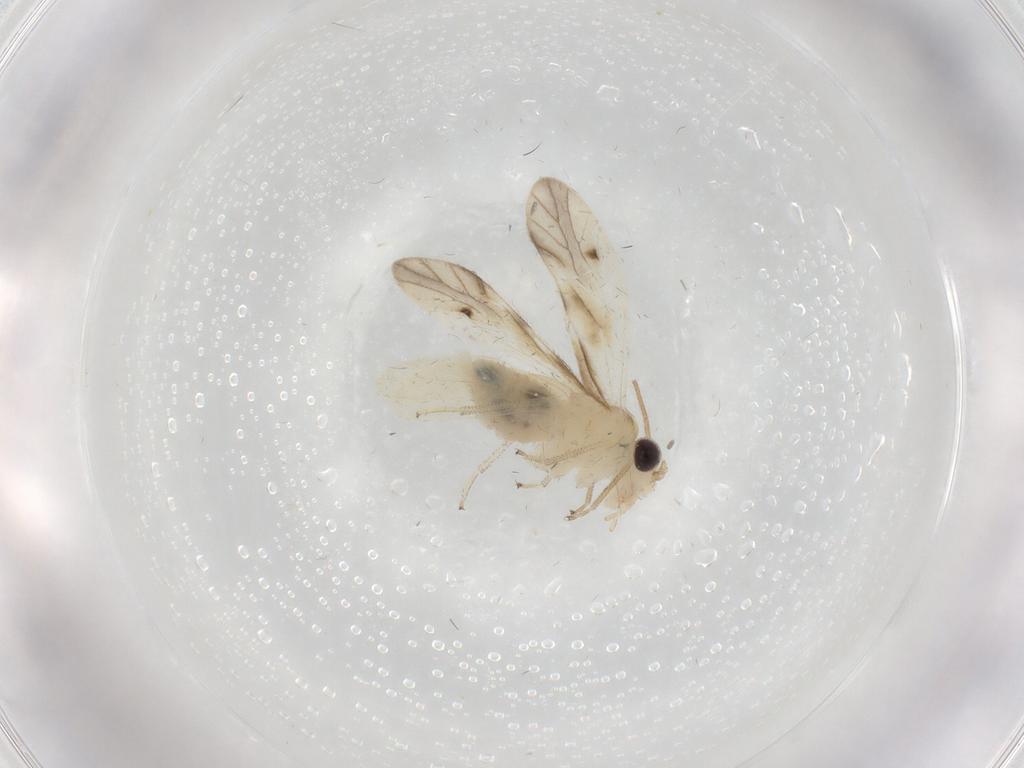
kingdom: Animalia
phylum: Arthropoda
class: Insecta
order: Psocodea
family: Caeciliusidae
